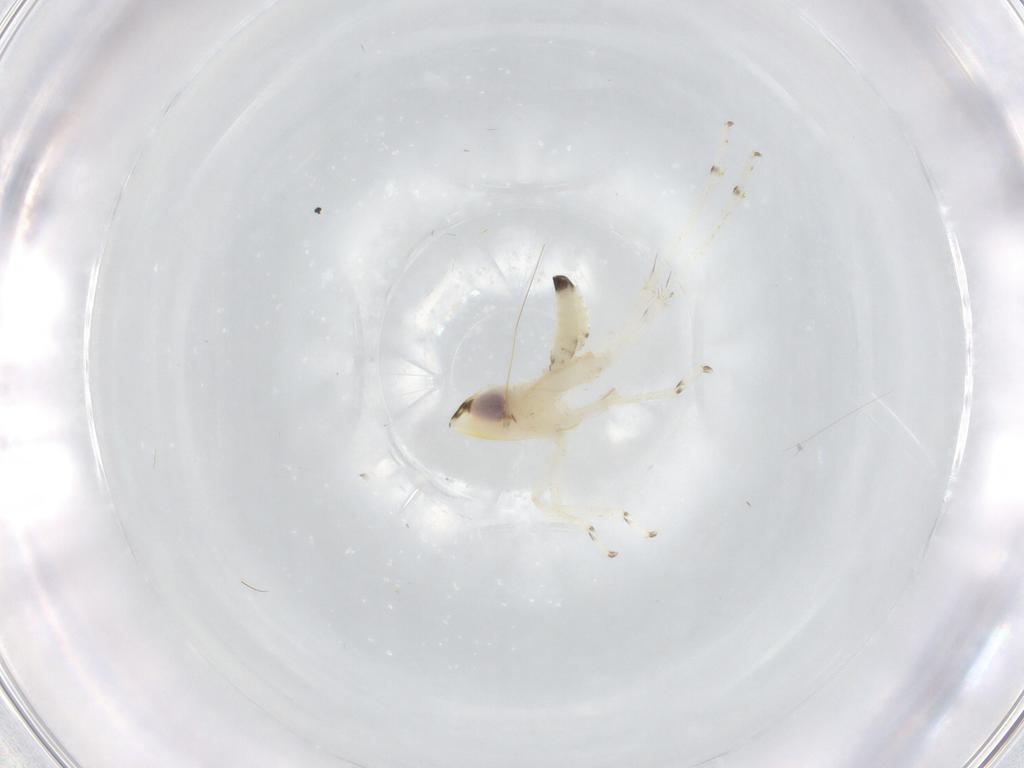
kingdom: Animalia
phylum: Arthropoda
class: Insecta
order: Hemiptera
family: Cicadellidae
